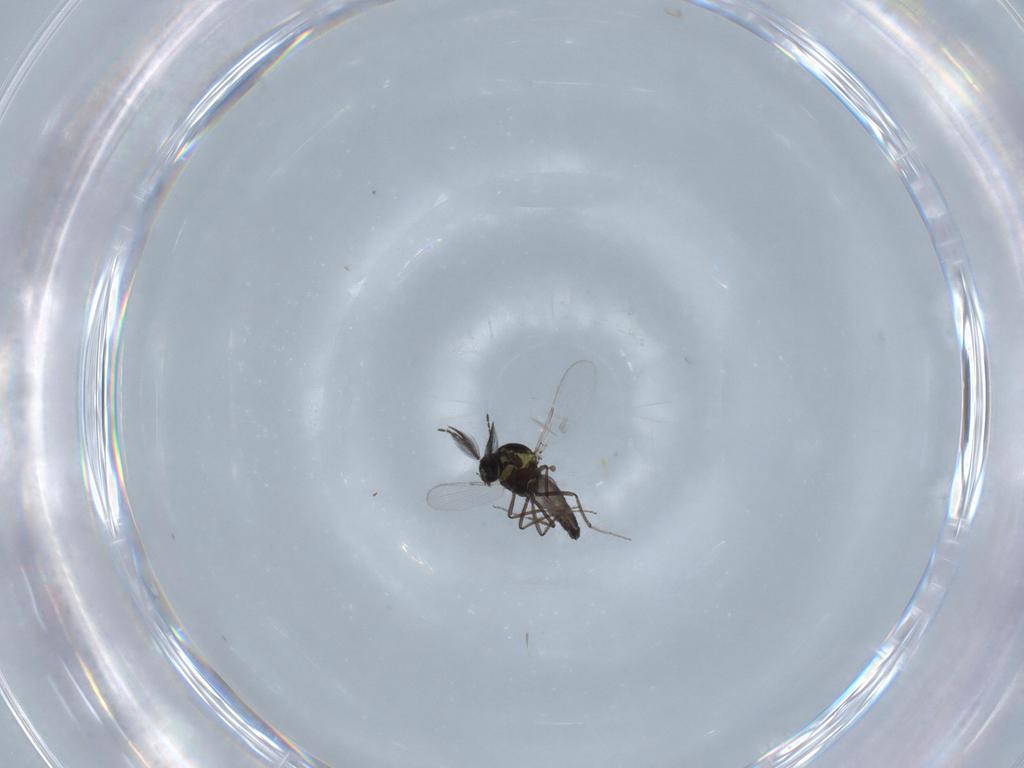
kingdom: Animalia
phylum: Arthropoda
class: Insecta
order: Diptera
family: Ceratopogonidae
